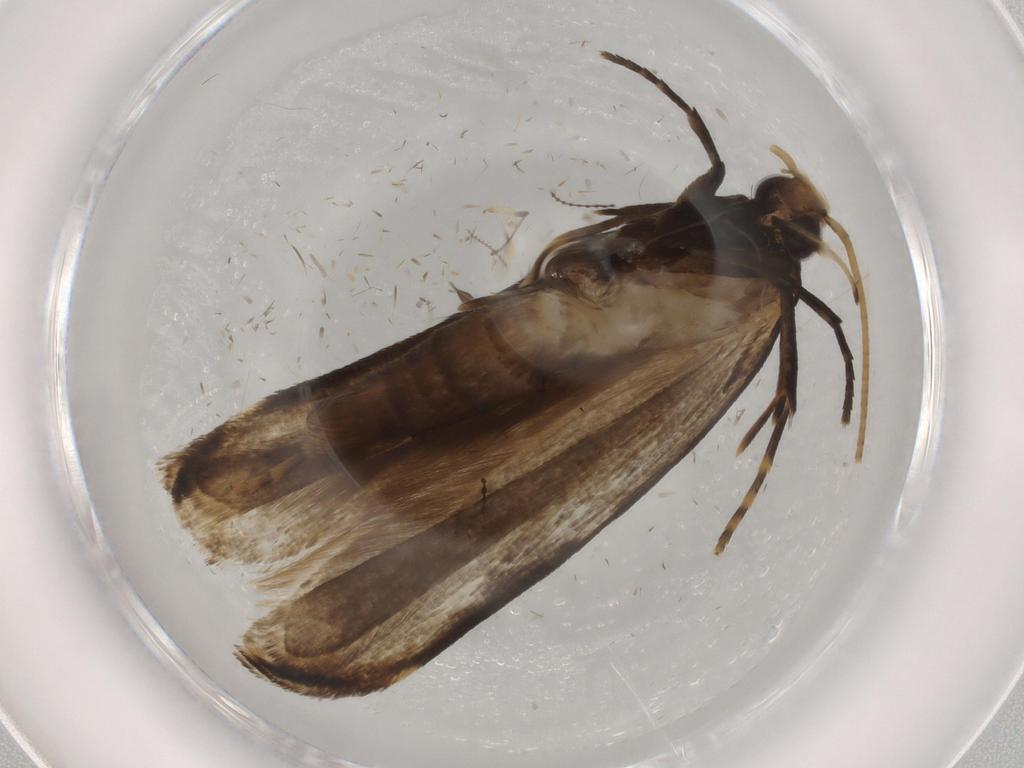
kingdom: Animalia
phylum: Arthropoda
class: Insecta
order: Lepidoptera
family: Gelechiidae
